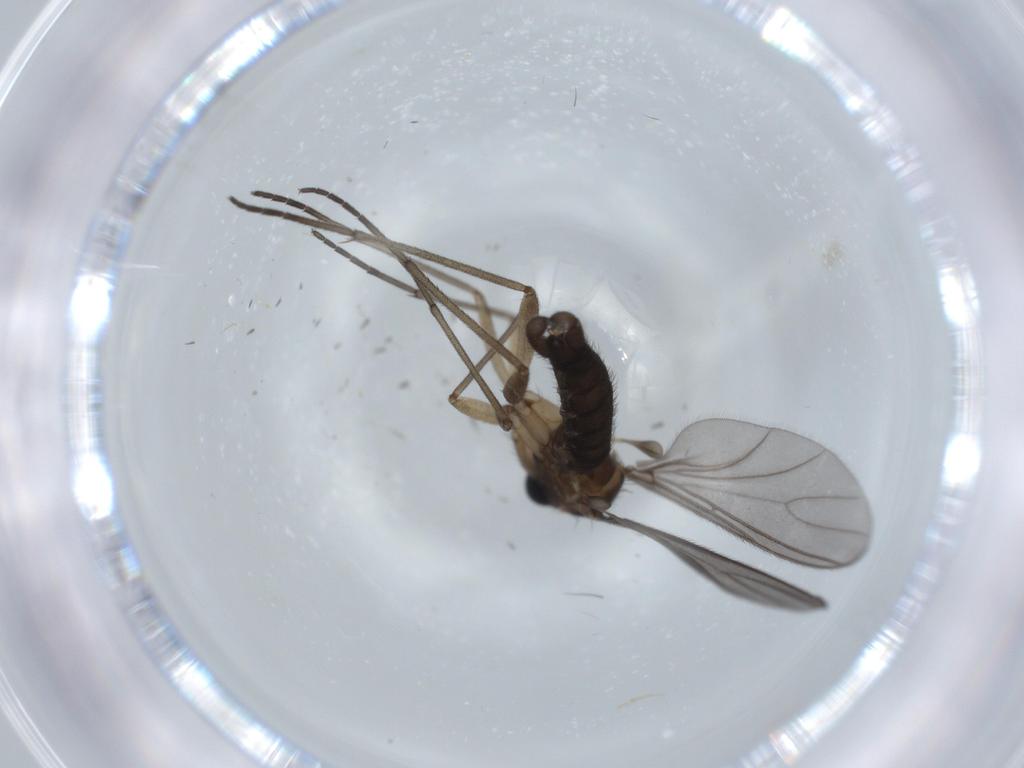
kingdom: Animalia
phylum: Arthropoda
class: Insecta
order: Diptera
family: Sciaridae
